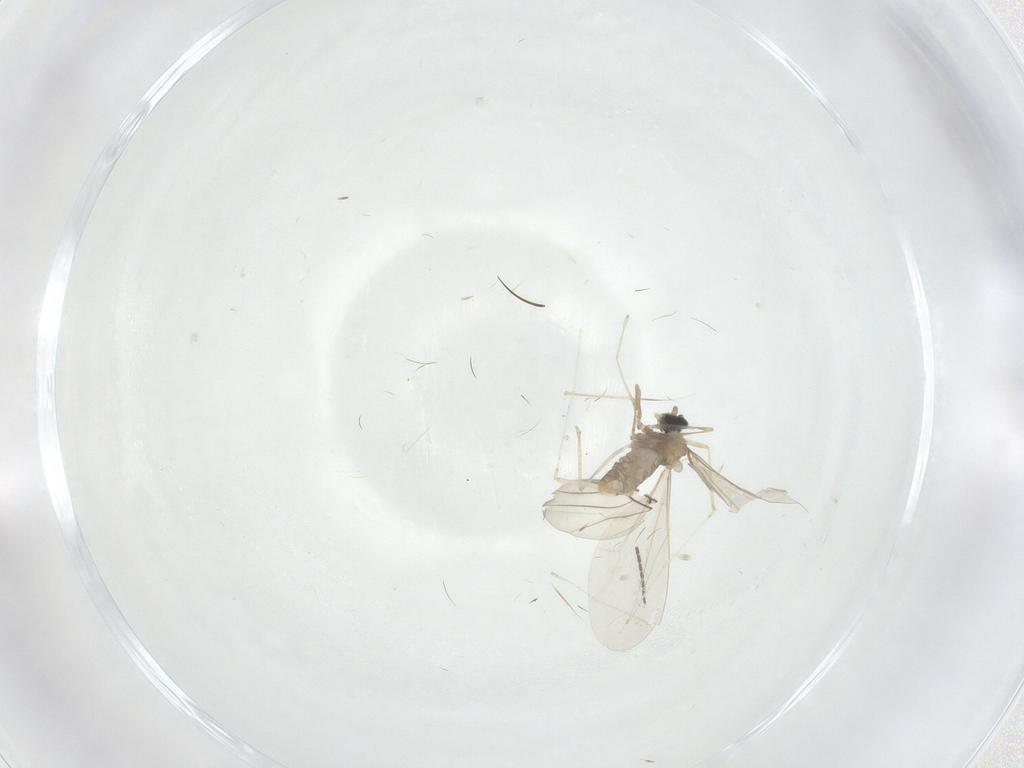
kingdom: Animalia
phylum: Arthropoda
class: Insecta
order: Diptera
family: Cecidomyiidae
